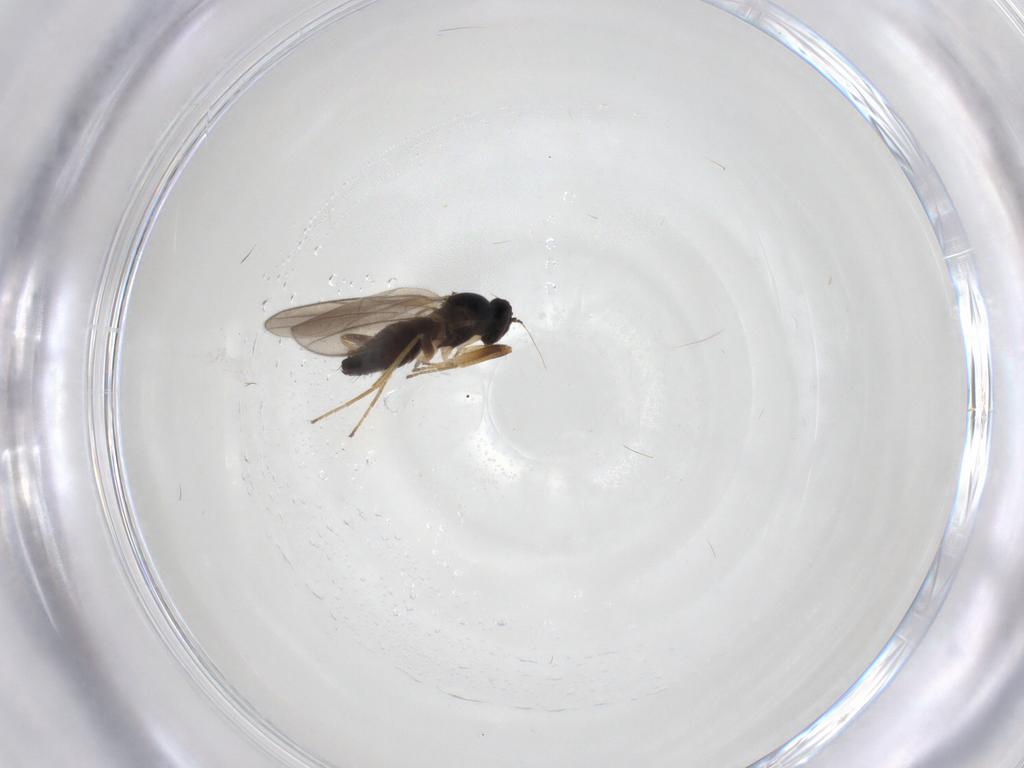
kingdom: Animalia
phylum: Arthropoda
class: Insecta
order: Diptera
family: Hybotidae
